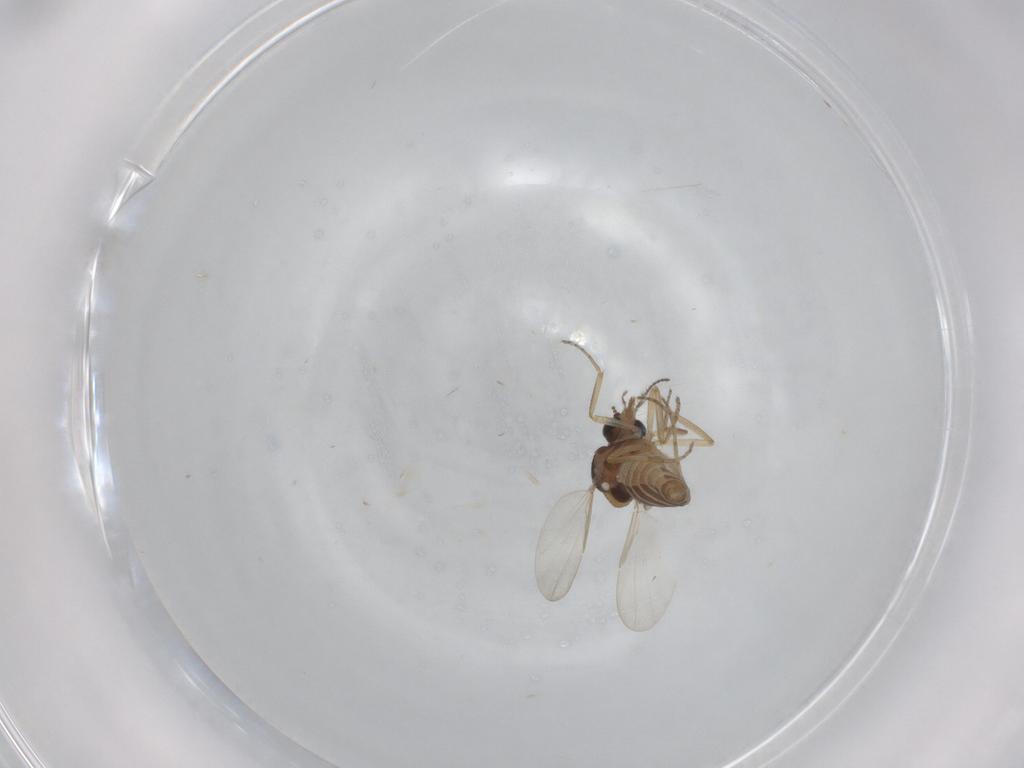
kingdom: Animalia
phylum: Arthropoda
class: Insecta
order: Diptera
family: Ceratopogonidae
